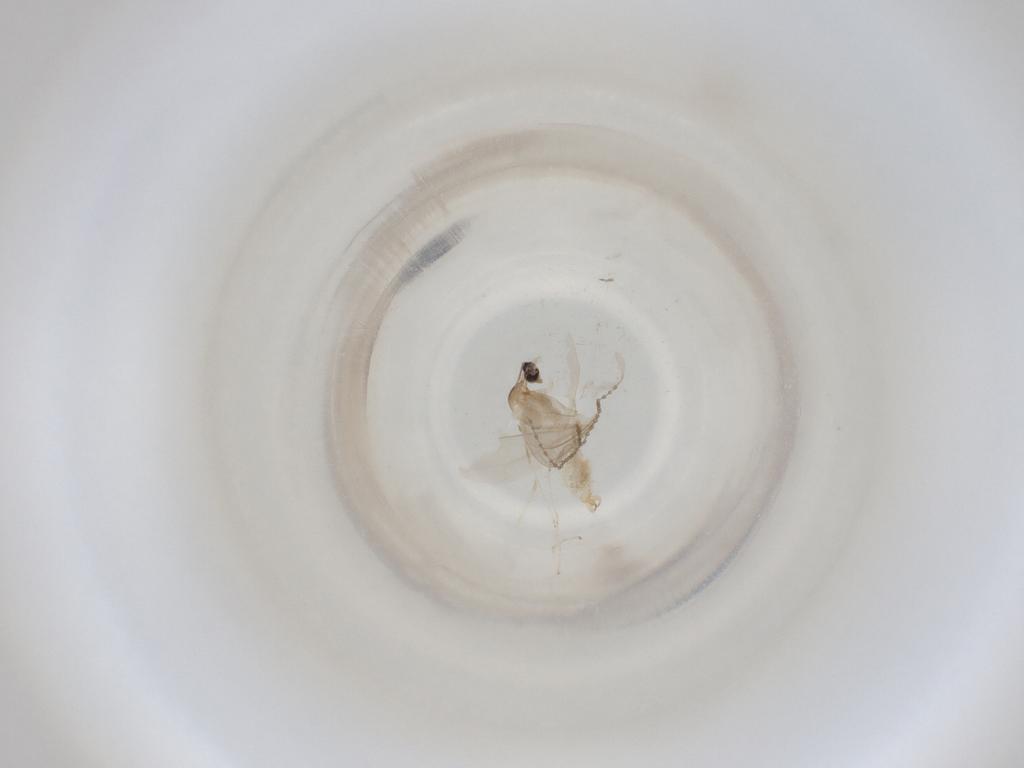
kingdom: Animalia
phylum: Arthropoda
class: Insecta
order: Diptera
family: Cecidomyiidae
